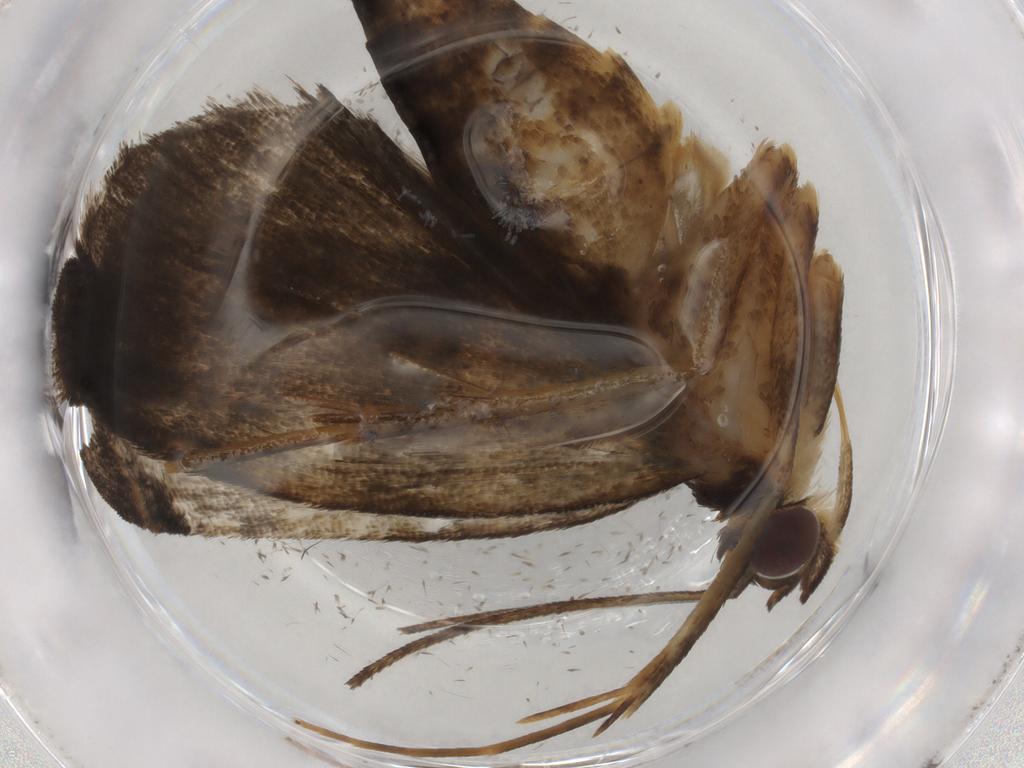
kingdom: Animalia
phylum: Arthropoda
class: Insecta
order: Lepidoptera
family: Crambidae
